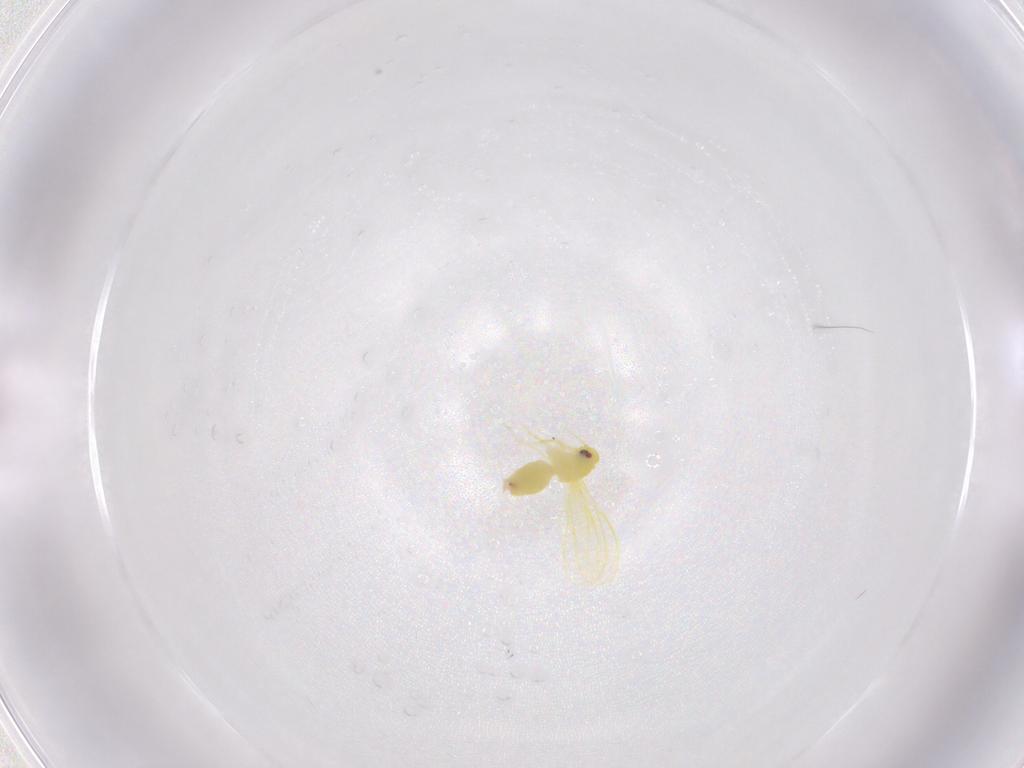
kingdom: Animalia
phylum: Arthropoda
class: Insecta
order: Hemiptera
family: Aleyrodidae
